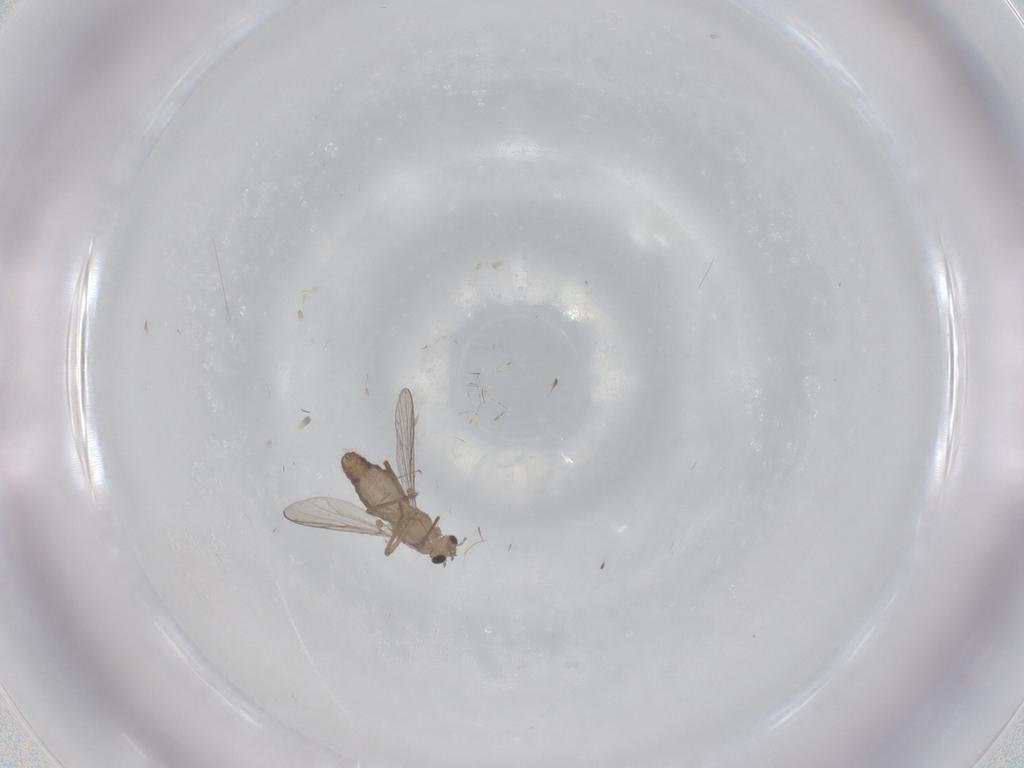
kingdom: Animalia
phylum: Arthropoda
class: Insecta
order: Diptera
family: Chironomidae
